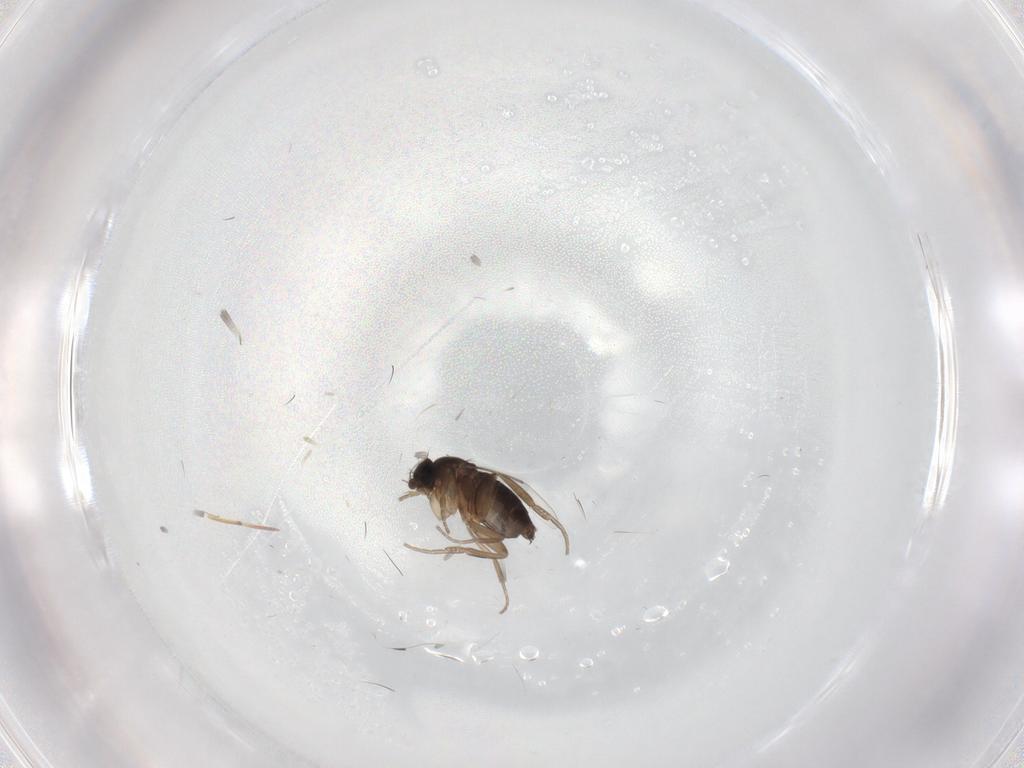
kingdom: Animalia
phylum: Arthropoda
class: Insecta
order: Diptera
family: Phoridae
